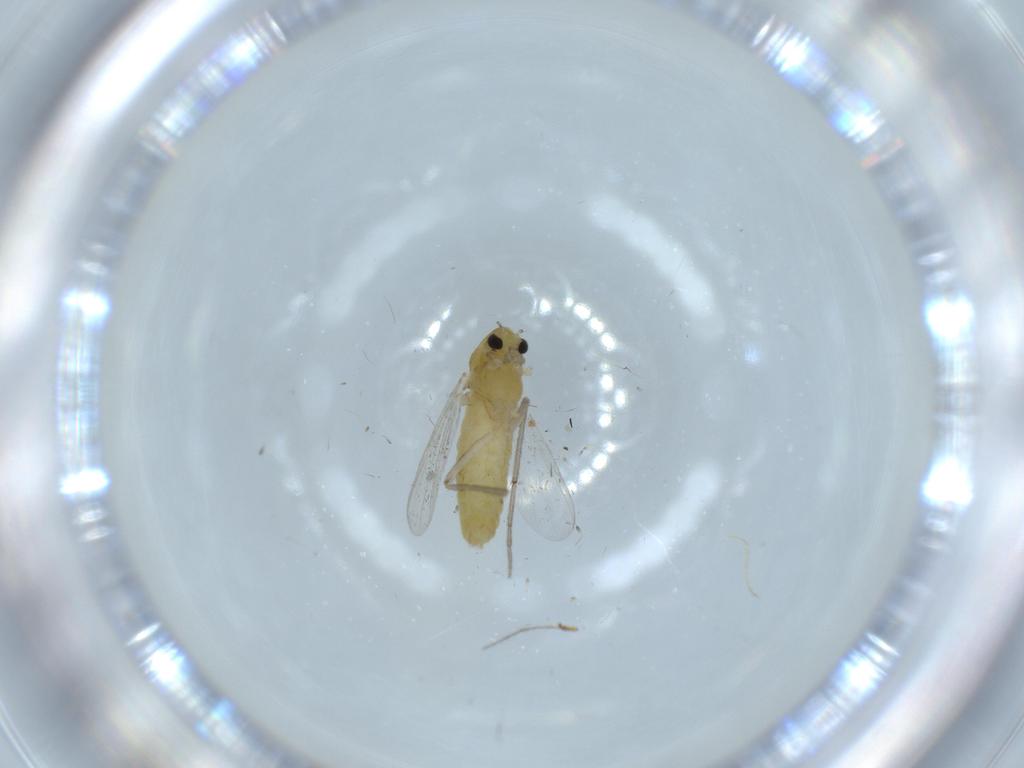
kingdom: Animalia
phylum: Arthropoda
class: Insecta
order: Diptera
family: Chironomidae
